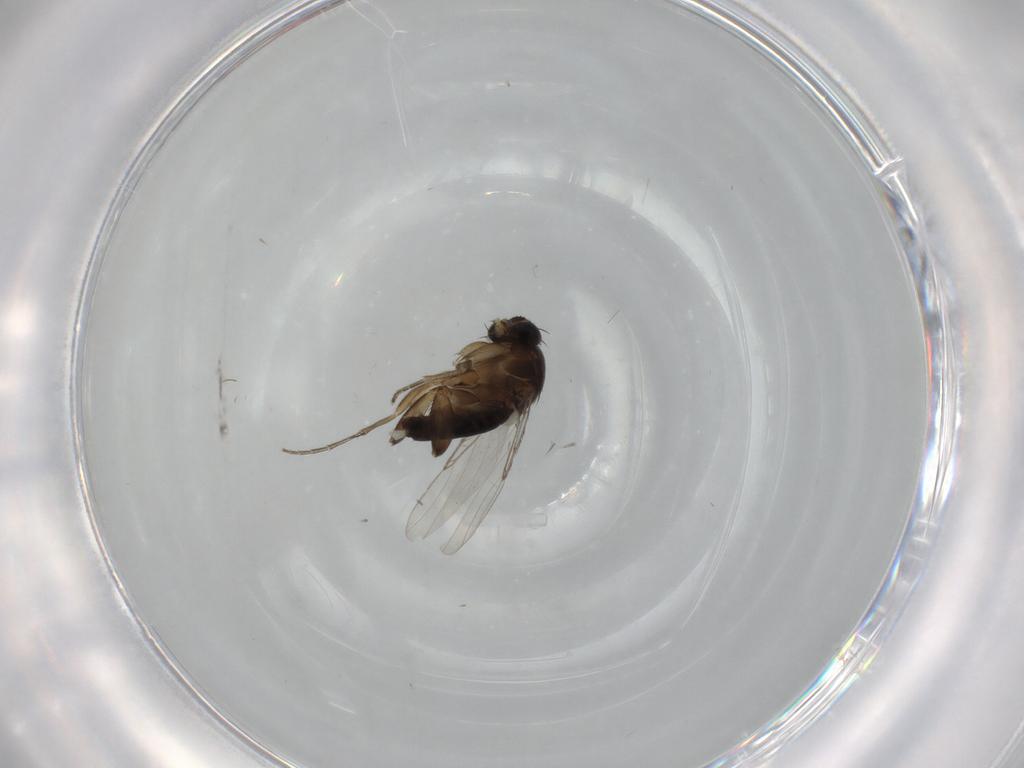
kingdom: Animalia
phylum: Arthropoda
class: Insecta
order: Diptera
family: Phoridae
